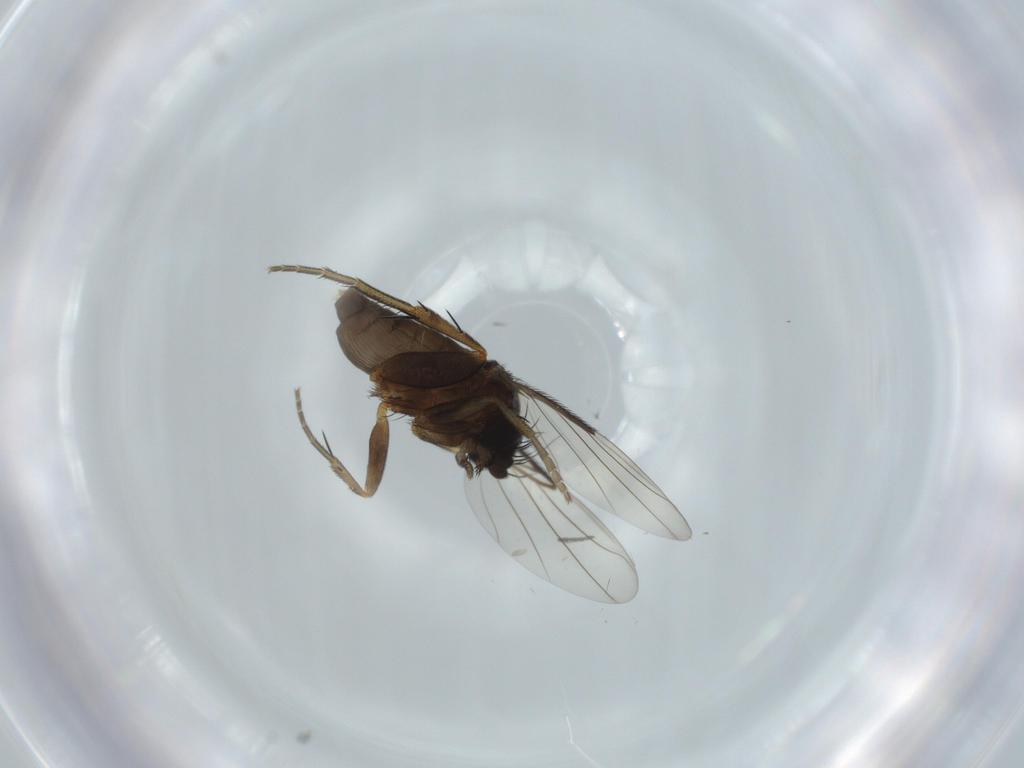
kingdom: Animalia
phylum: Arthropoda
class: Insecta
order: Diptera
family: Phoridae
